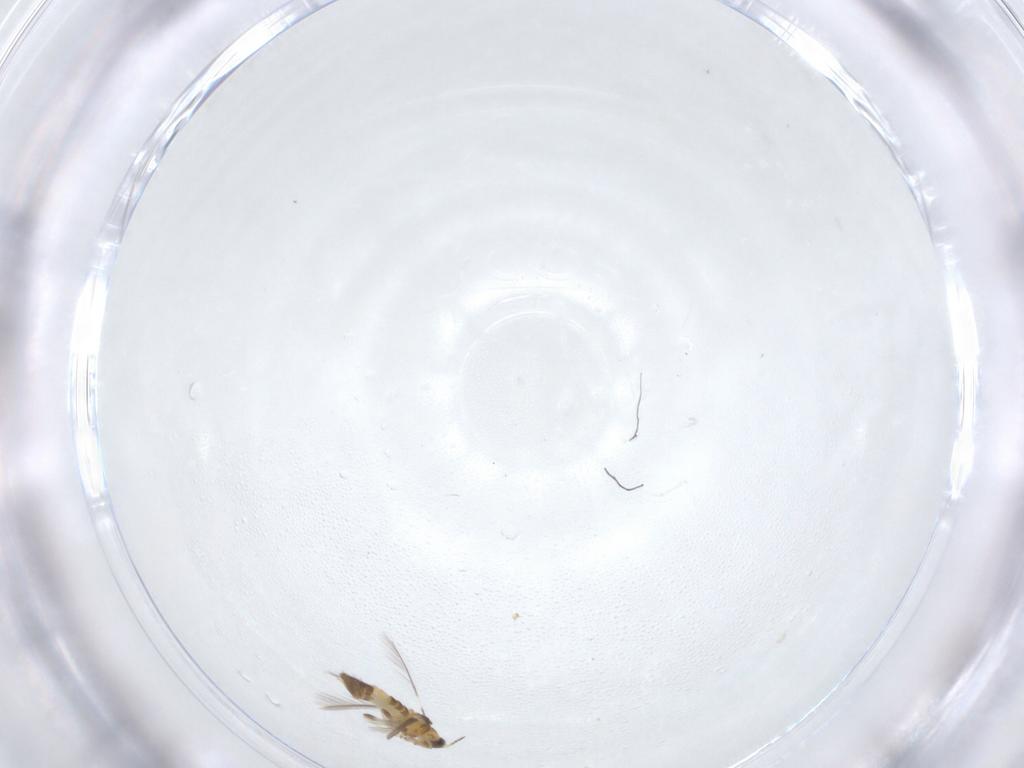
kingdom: Animalia
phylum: Arthropoda
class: Insecta
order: Thysanoptera
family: Thripidae
